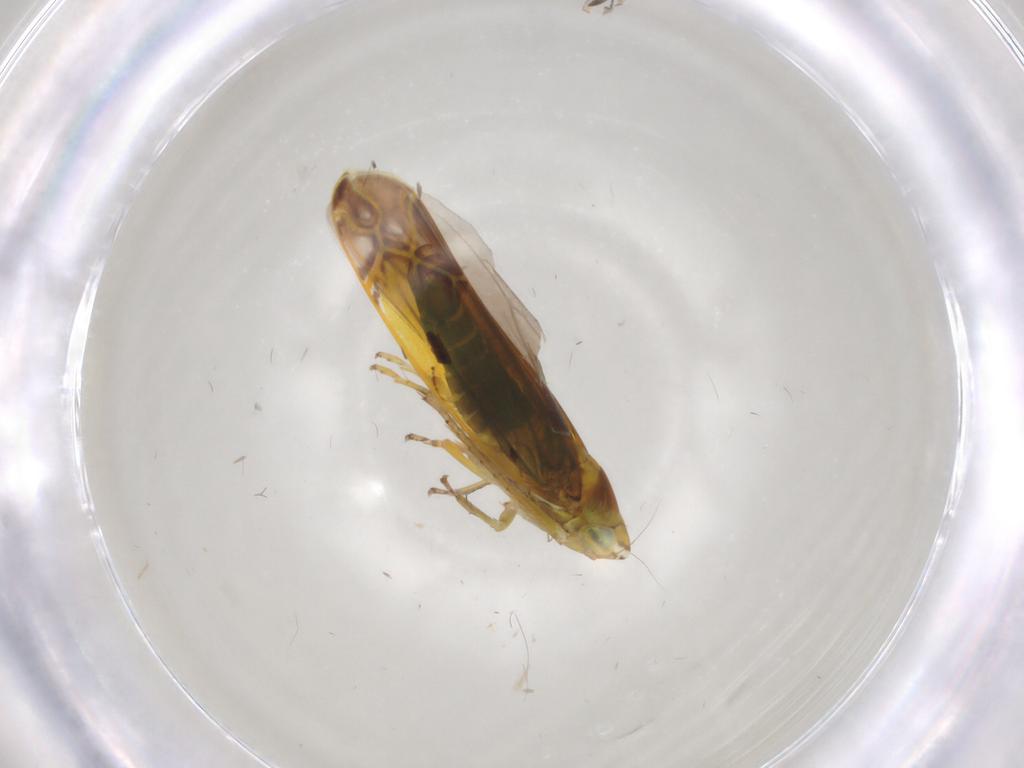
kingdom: Animalia
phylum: Arthropoda
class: Insecta
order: Hemiptera
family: Cicadellidae
